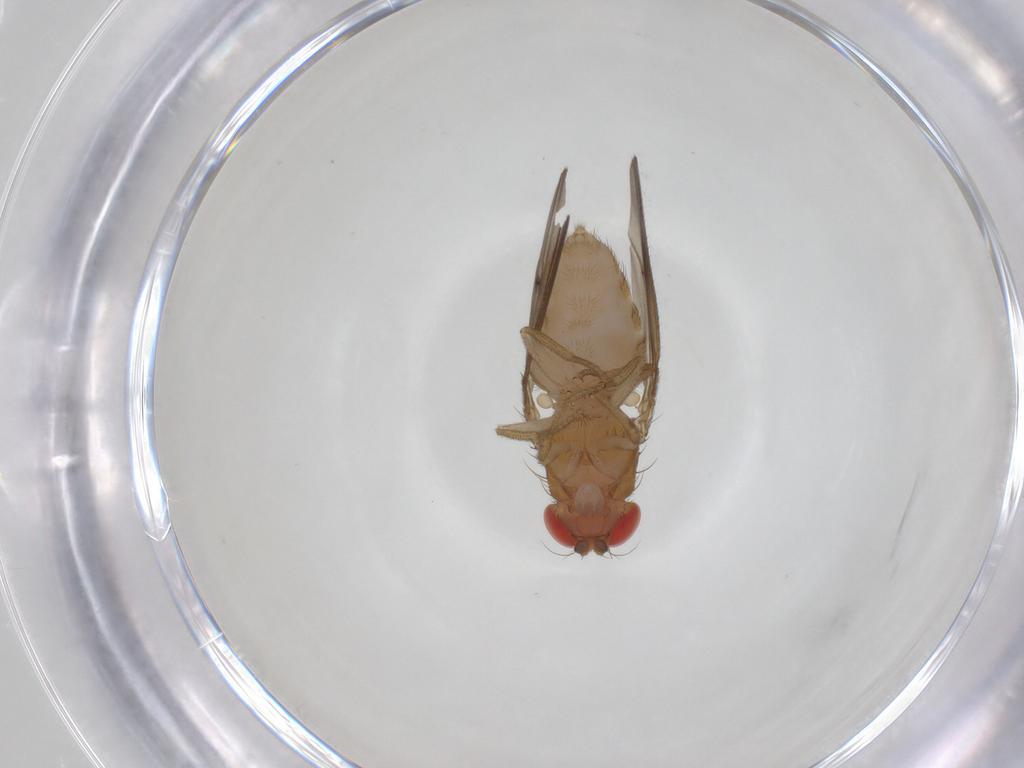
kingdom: Animalia
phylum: Arthropoda
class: Insecta
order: Diptera
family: Drosophilidae
